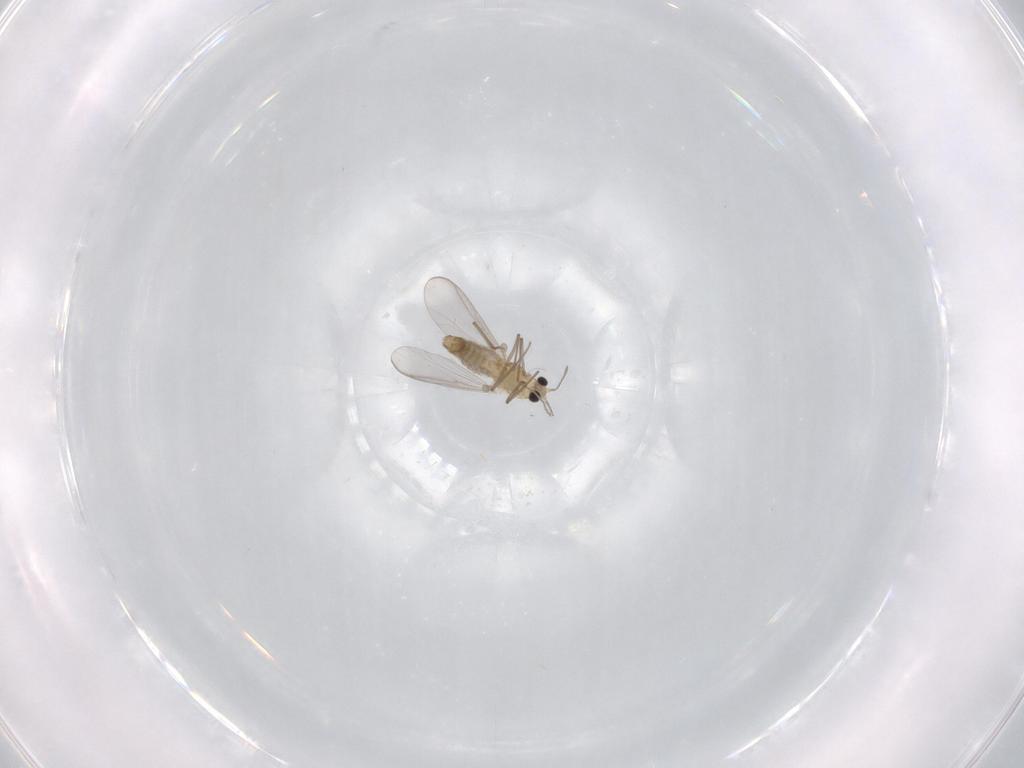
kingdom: Animalia
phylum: Arthropoda
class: Insecta
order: Diptera
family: Chironomidae
